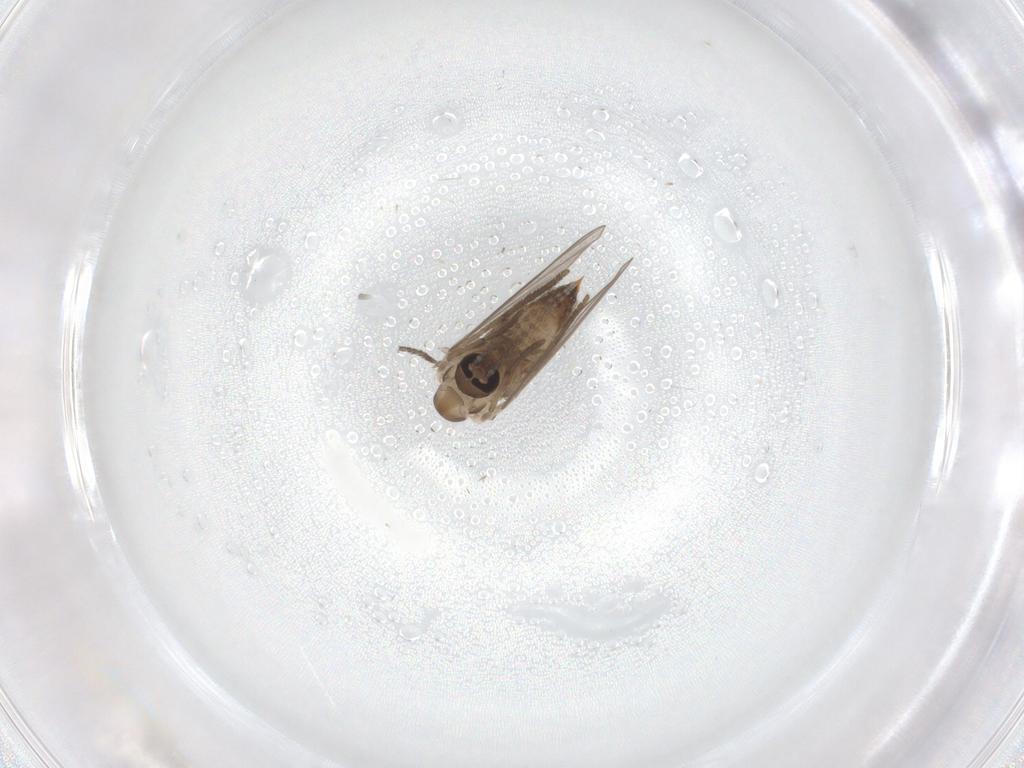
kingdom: Animalia
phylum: Arthropoda
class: Insecta
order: Diptera
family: Psychodidae
